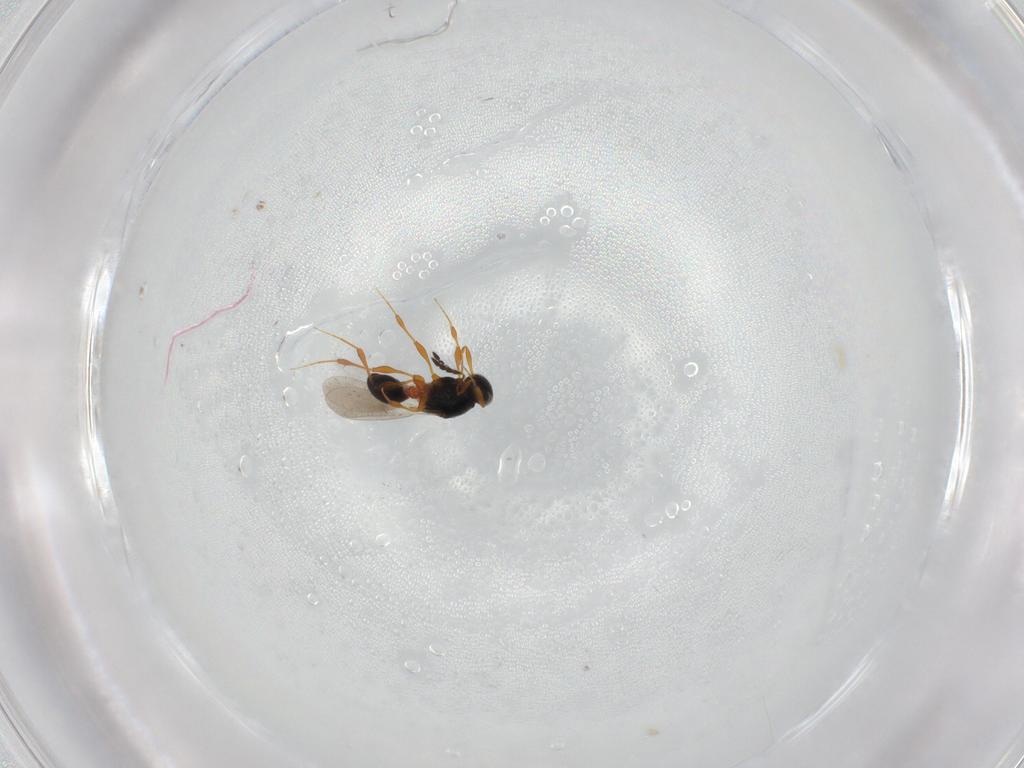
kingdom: Animalia
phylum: Arthropoda
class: Insecta
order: Hymenoptera
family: Platygastridae
